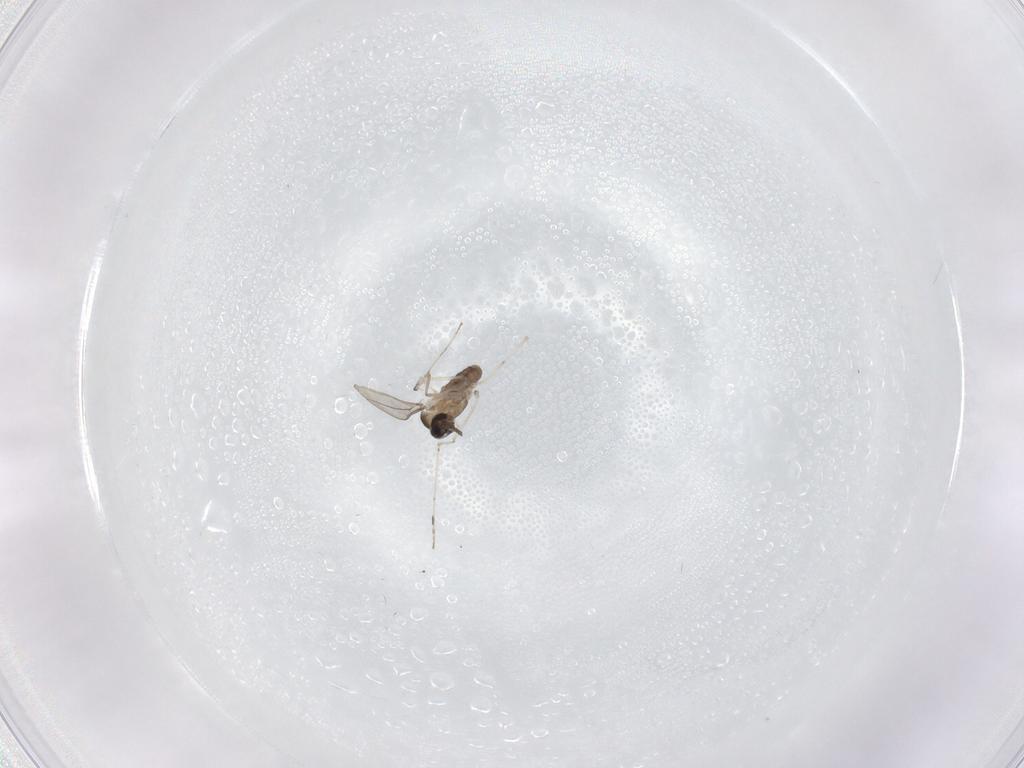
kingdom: Animalia
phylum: Arthropoda
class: Insecta
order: Diptera
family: Cecidomyiidae
